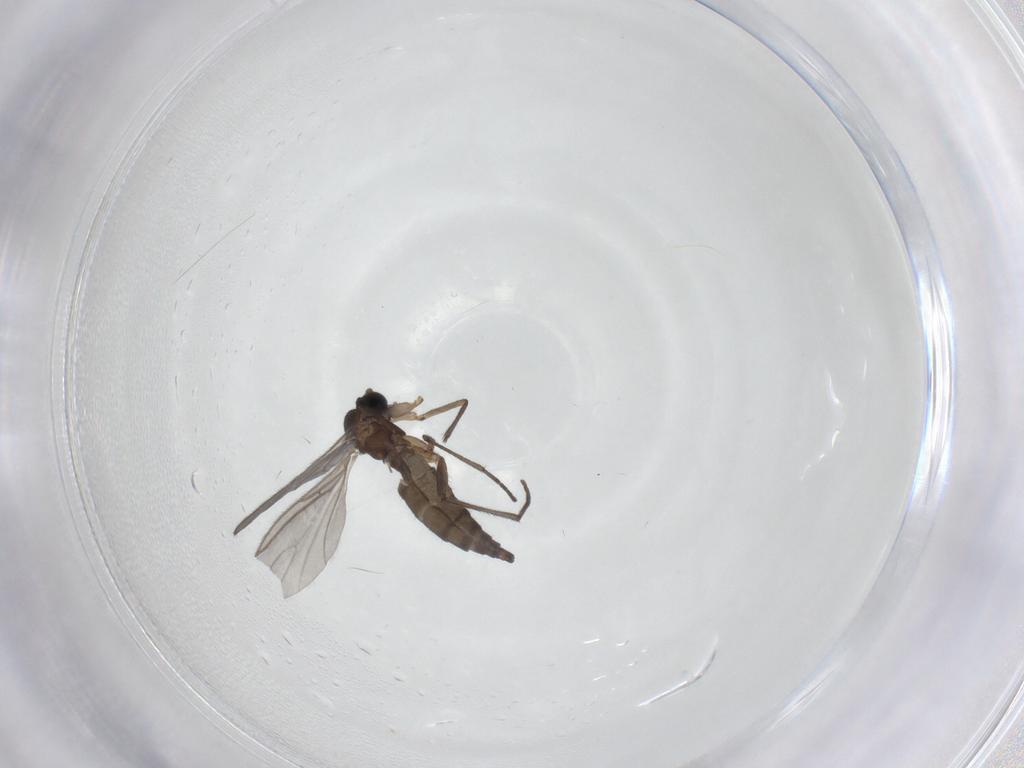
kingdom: Animalia
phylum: Arthropoda
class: Insecta
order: Diptera
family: Sciaridae
